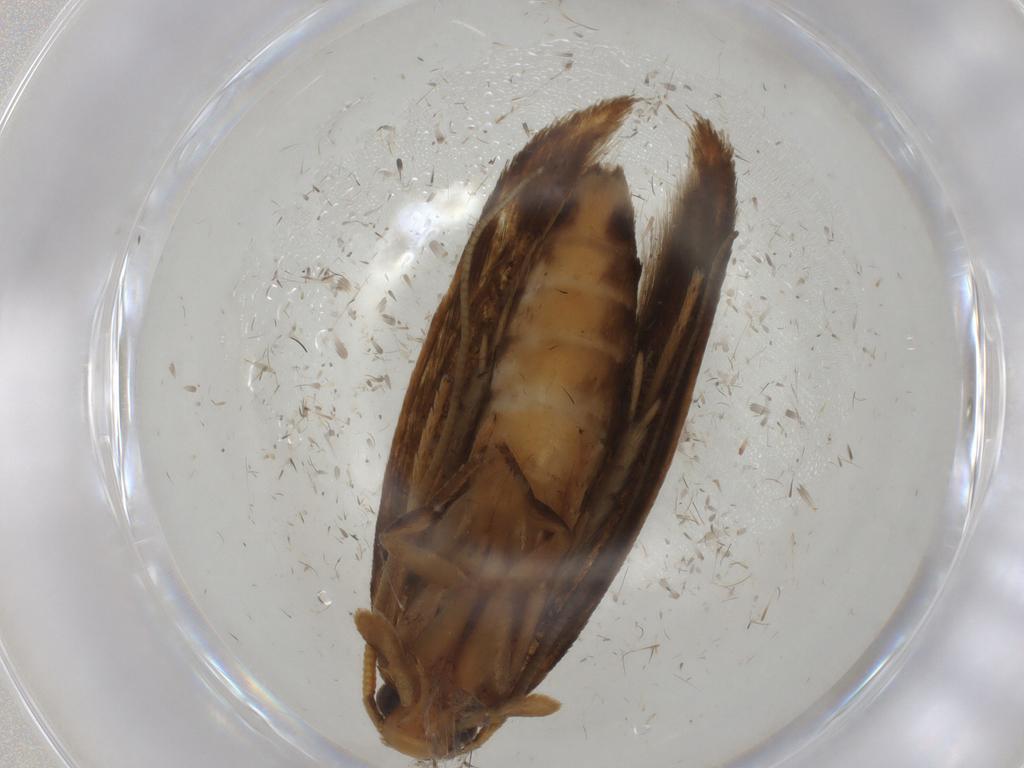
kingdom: Animalia
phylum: Arthropoda
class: Insecta
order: Lepidoptera
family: Tineidae
